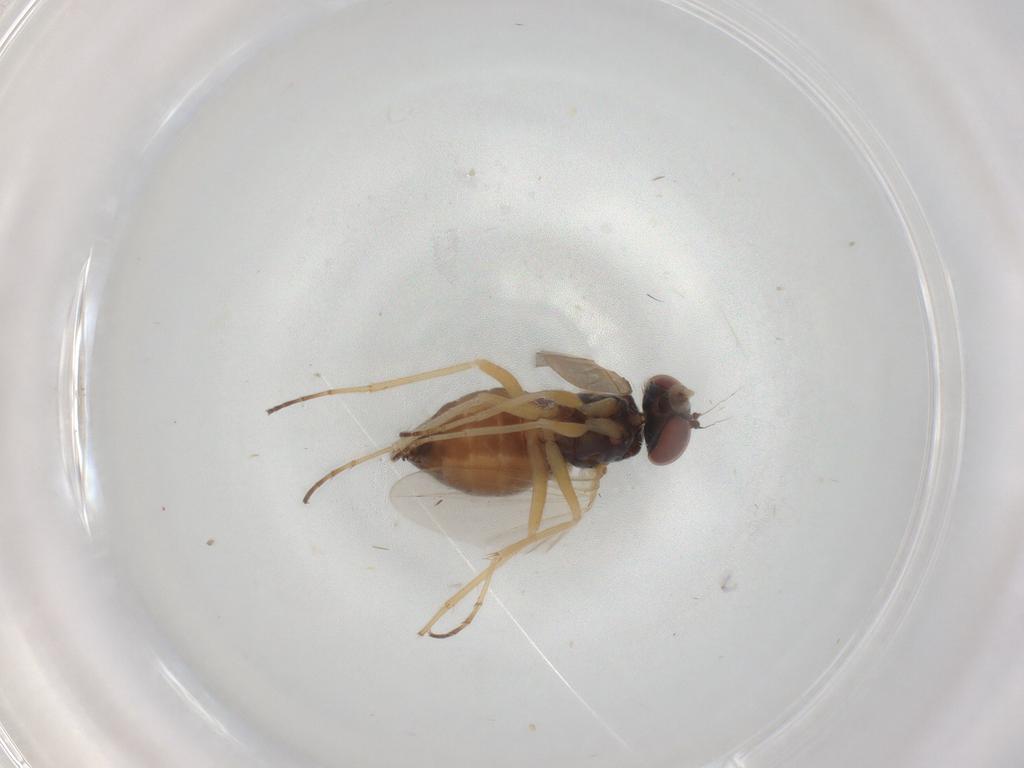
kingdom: Animalia
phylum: Arthropoda
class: Insecta
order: Diptera
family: Dolichopodidae
